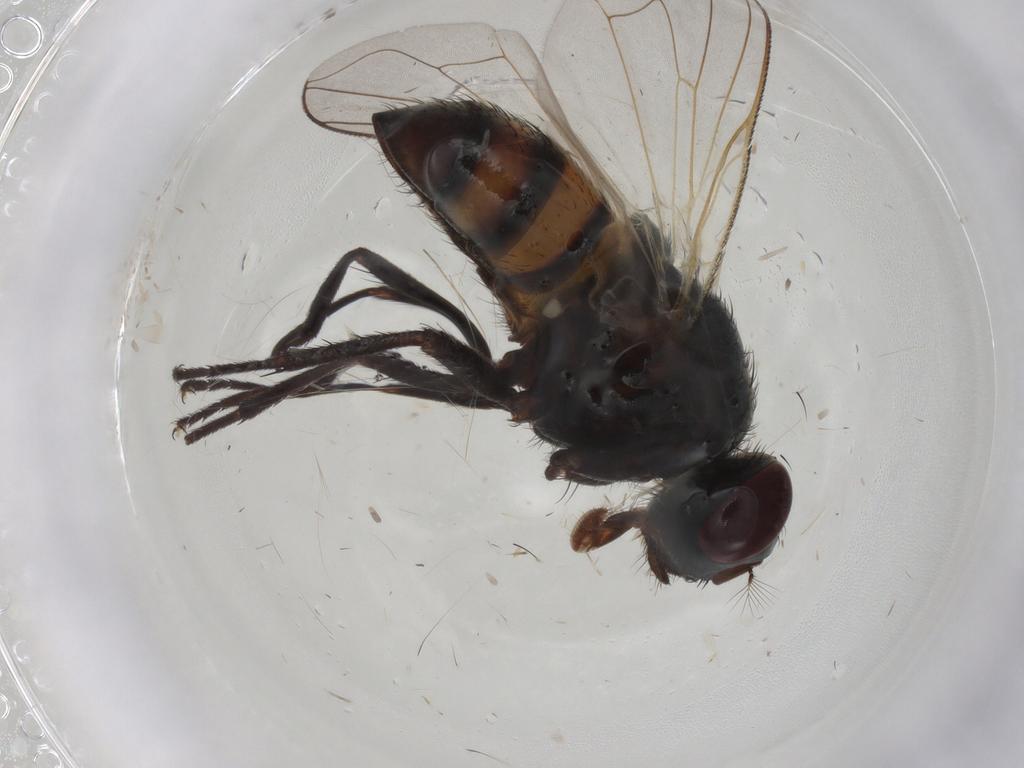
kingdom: Animalia
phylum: Arthropoda
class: Insecta
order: Diptera
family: Muscidae
